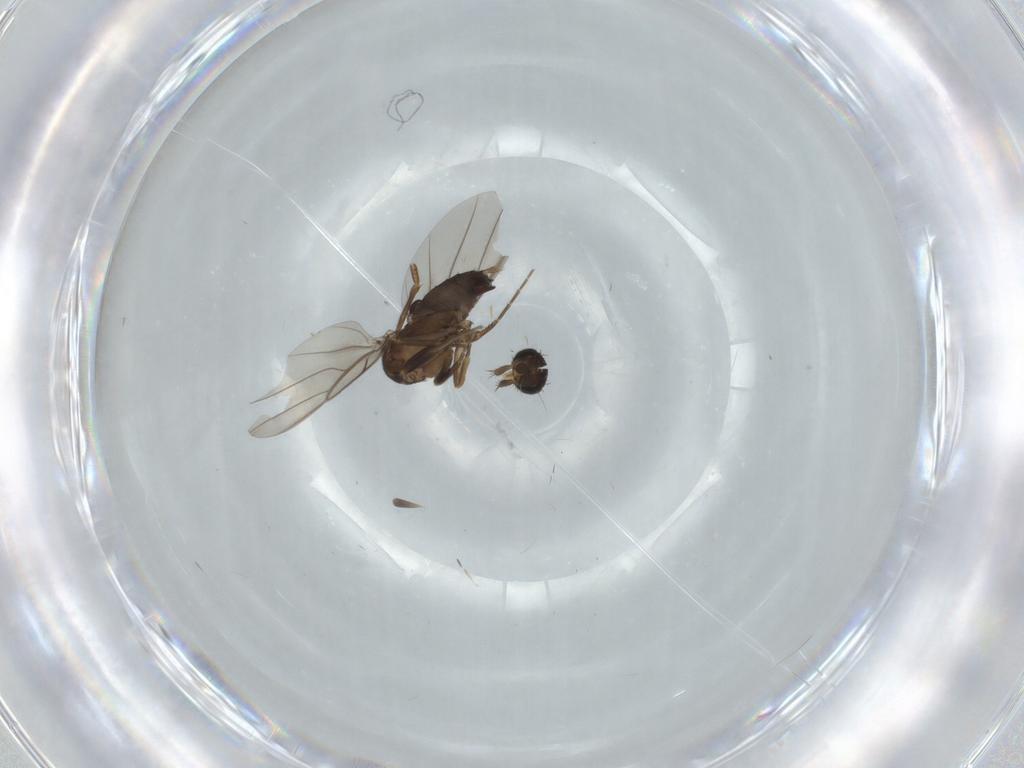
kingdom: Animalia
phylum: Arthropoda
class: Insecta
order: Diptera
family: Phoridae
